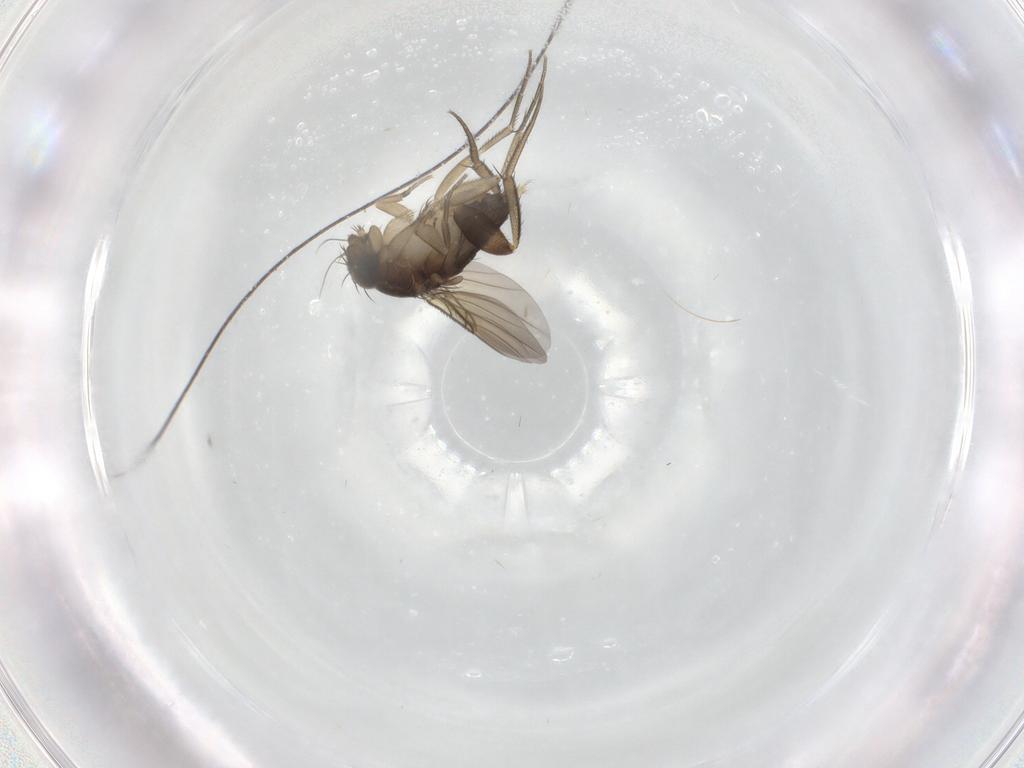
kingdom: Animalia
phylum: Arthropoda
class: Insecta
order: Diptera
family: Phoridae
